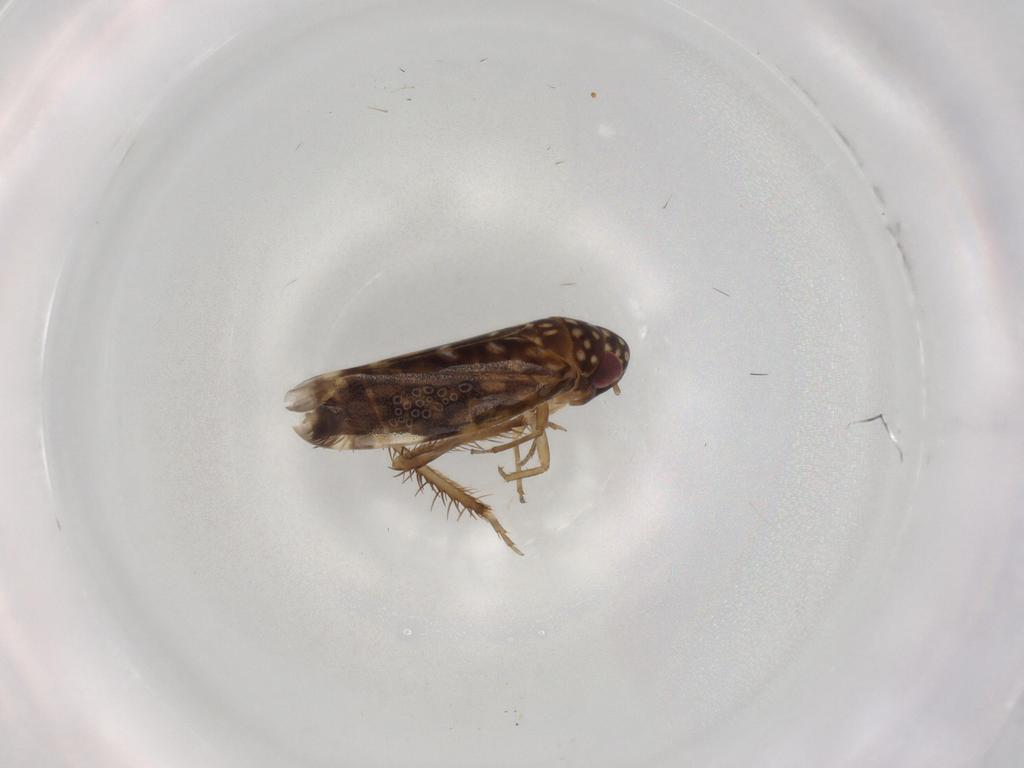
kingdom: Animalia
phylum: Arthropoda
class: Insecta
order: Hemiptera
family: Cicadellidae
